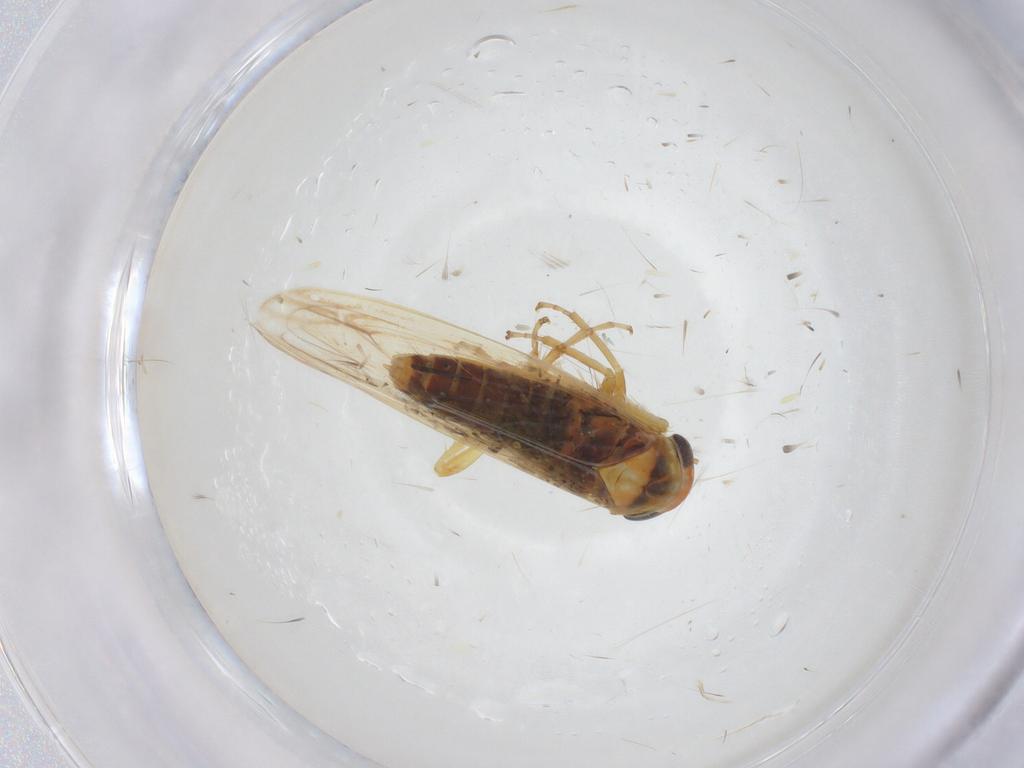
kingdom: Animalia
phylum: Arthropoda
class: Insecta
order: Hemiptera
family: Cicadellidae
